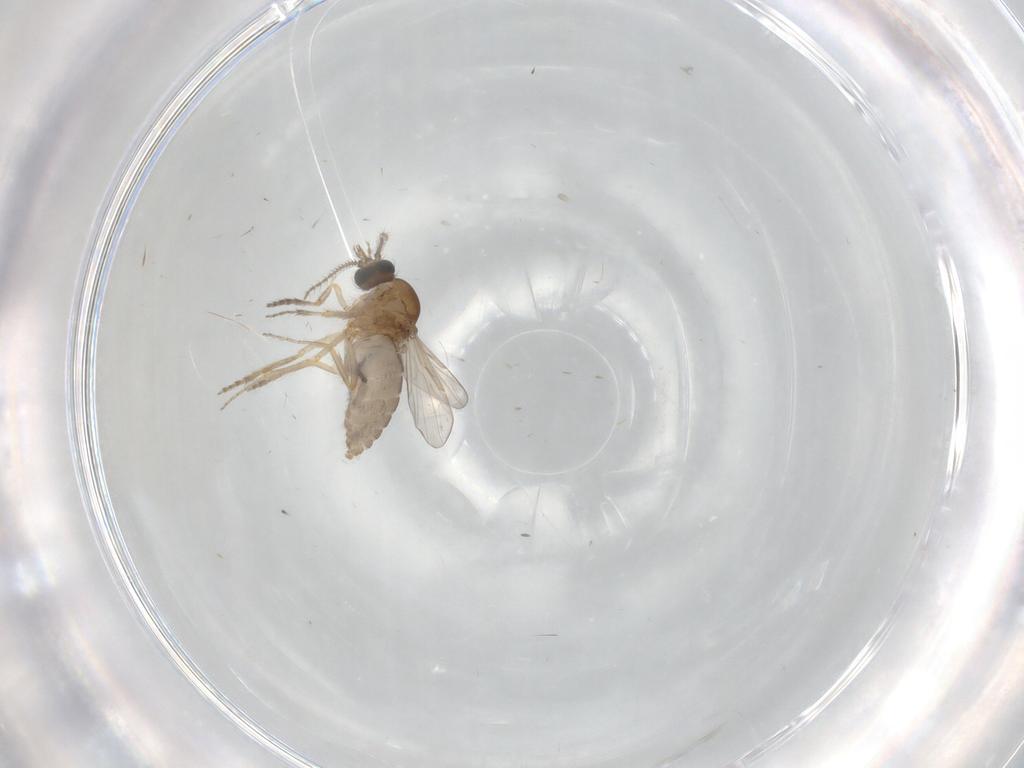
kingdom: Animalia
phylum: Arthropoda
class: Insecta
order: Diptera
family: Ceratopogonidae
